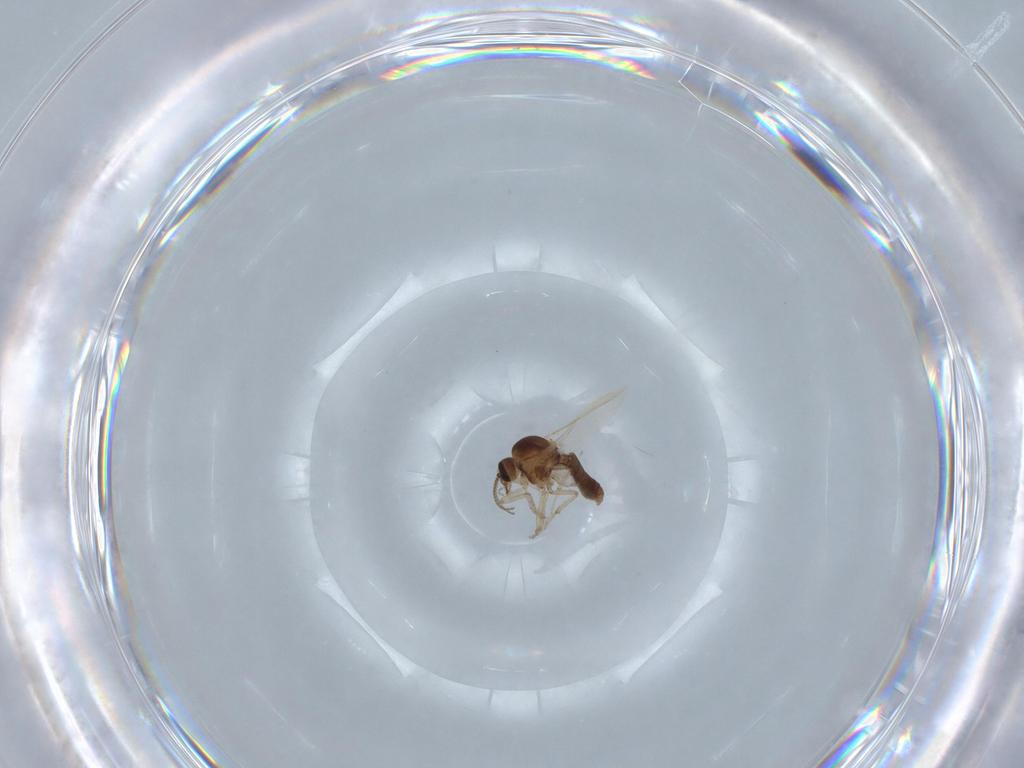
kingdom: Animalia
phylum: Arthropoda
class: Insecta
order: Diptera
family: Ceratopogonidae
